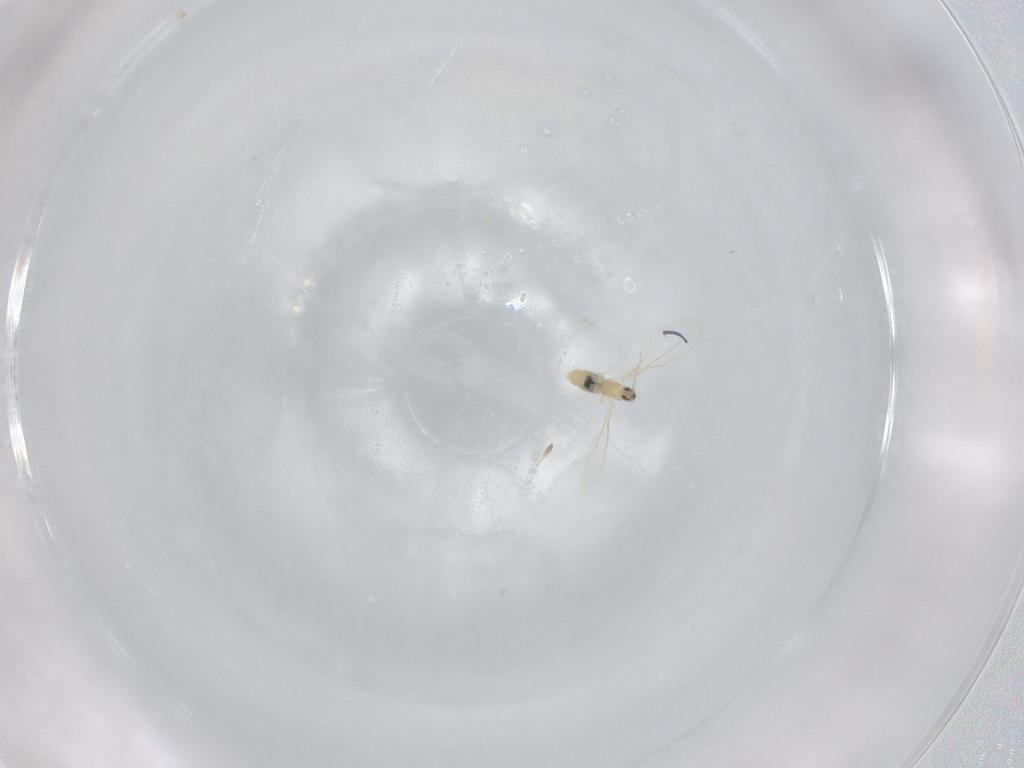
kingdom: Animalia
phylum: Arthropoda
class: Insecta
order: Diptera
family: Cecidomyiidae
